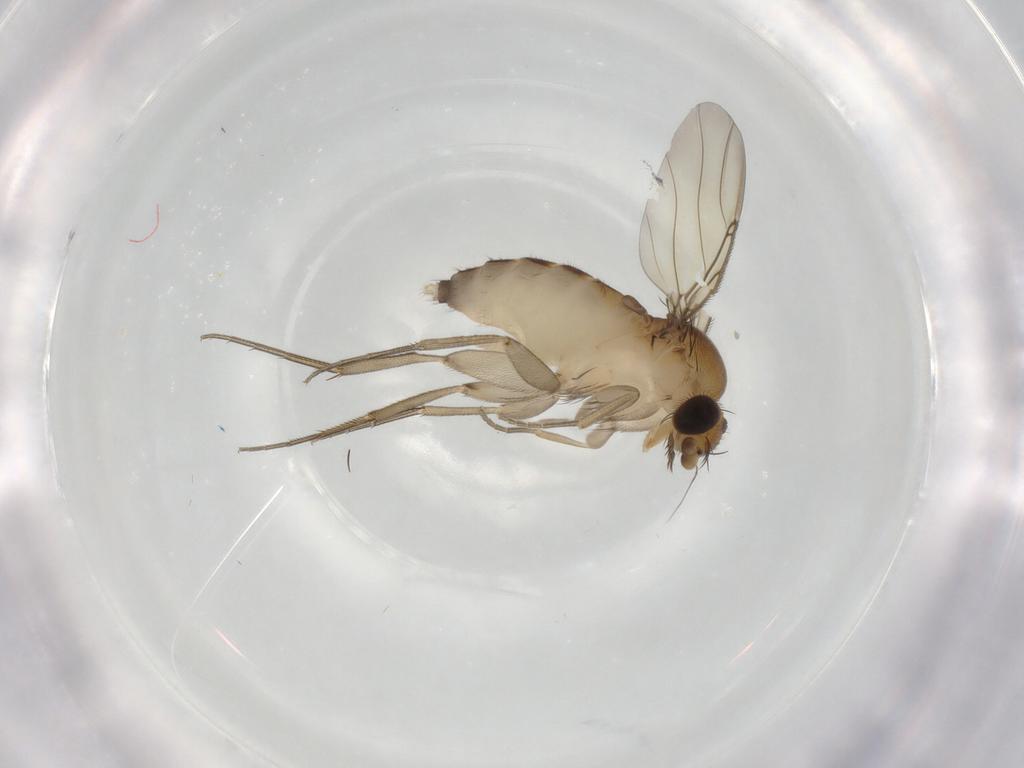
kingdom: Animalia
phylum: Arthropoda
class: Insecta
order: Diptera
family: Phoridae
